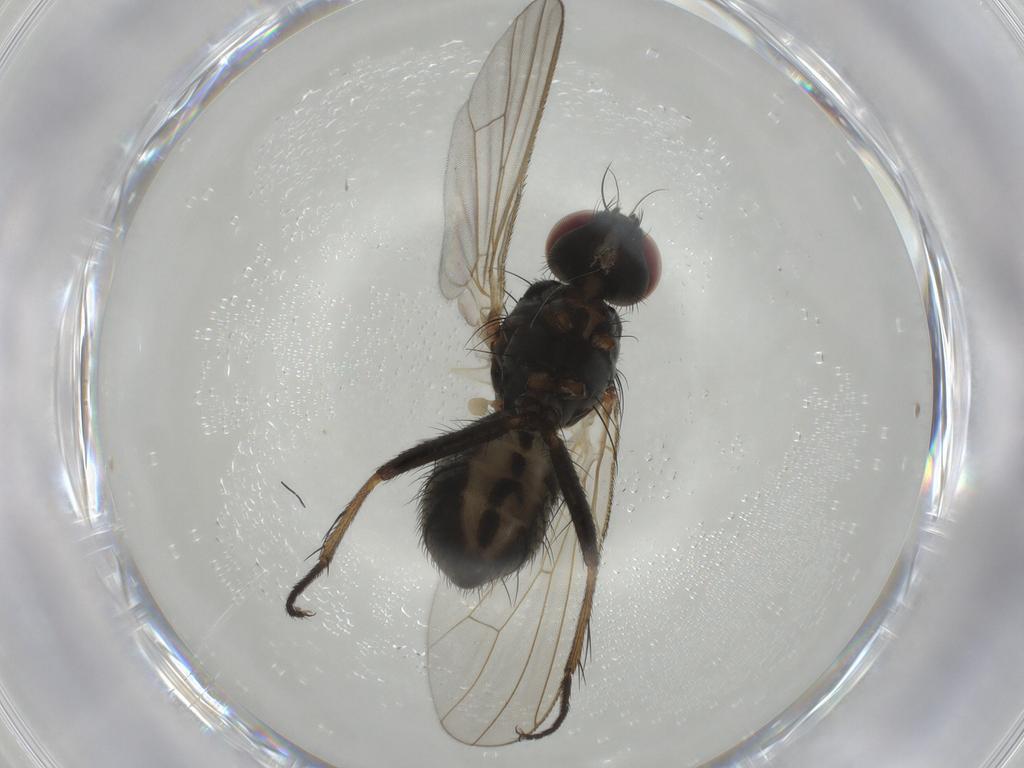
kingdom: Animalia
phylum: Arthropoda
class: Insecta
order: Diptera
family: Muscidae
